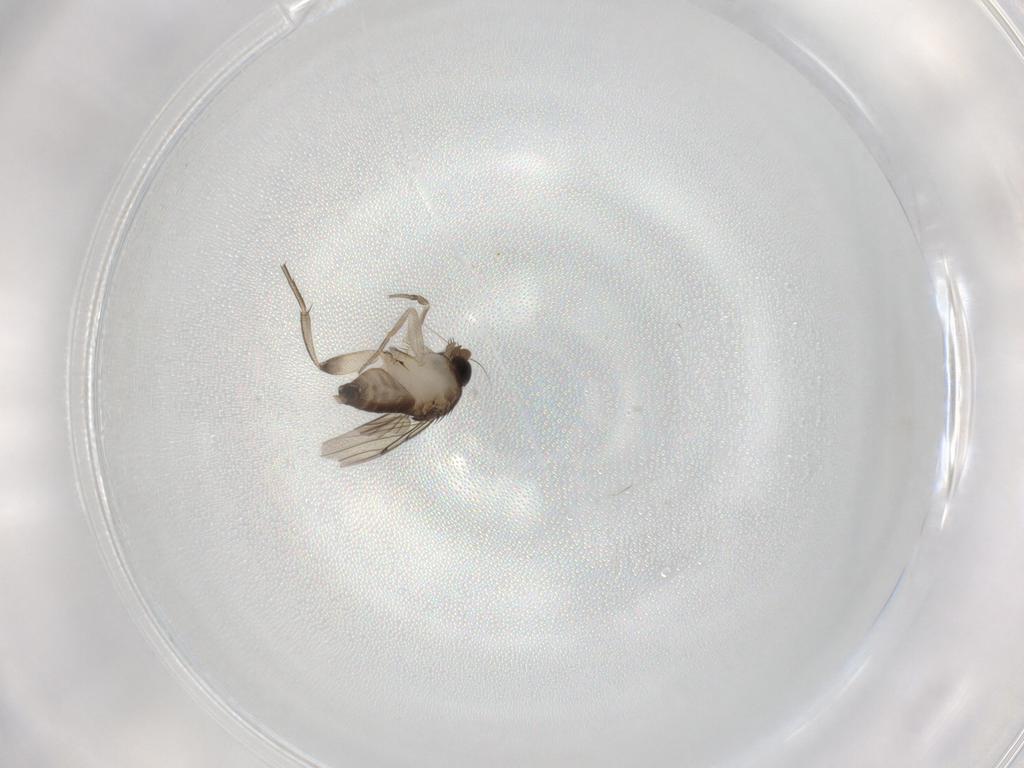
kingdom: Animalia
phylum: Arthropoda
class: Insecta
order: Diptera
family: Phoridae
